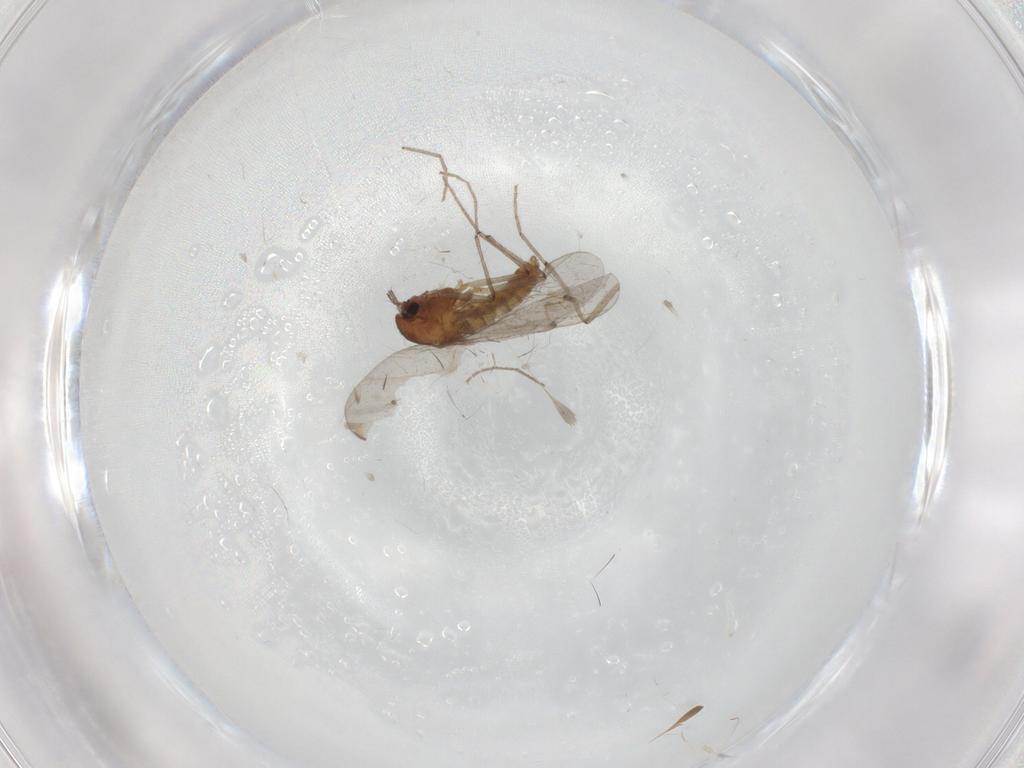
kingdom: Animalia
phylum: Arthropoda
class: Insecta
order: Diptera
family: Chironomidae
